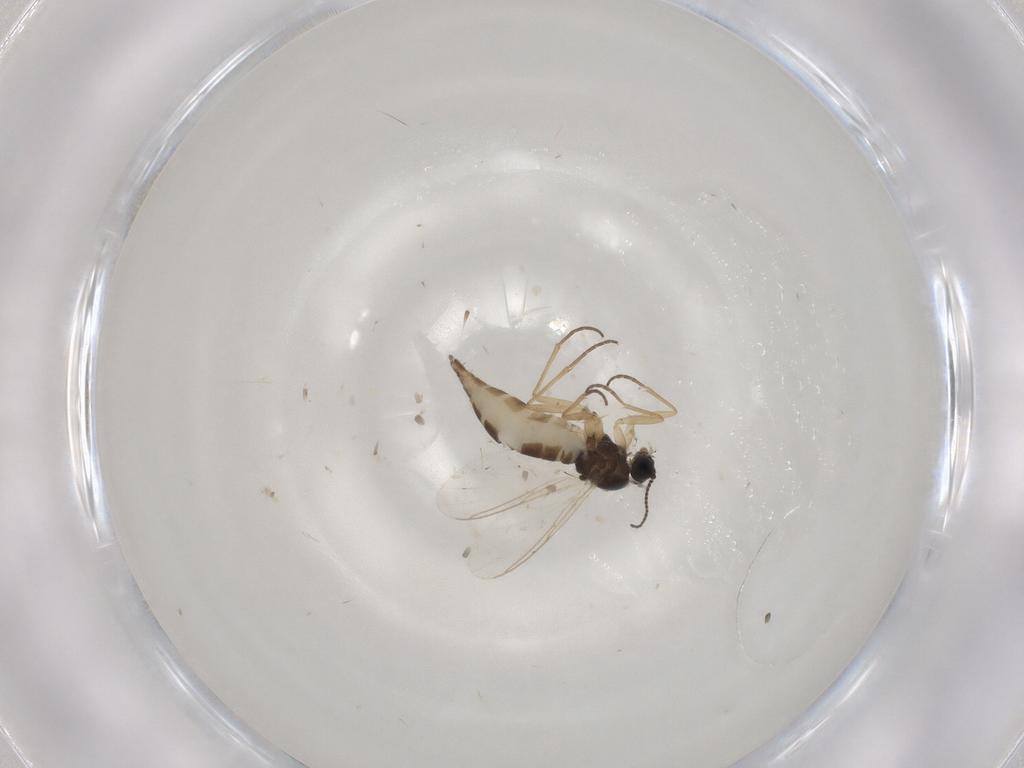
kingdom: Animalia
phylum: Arthropoda
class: Insecta
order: Diptera
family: Sciaridae
